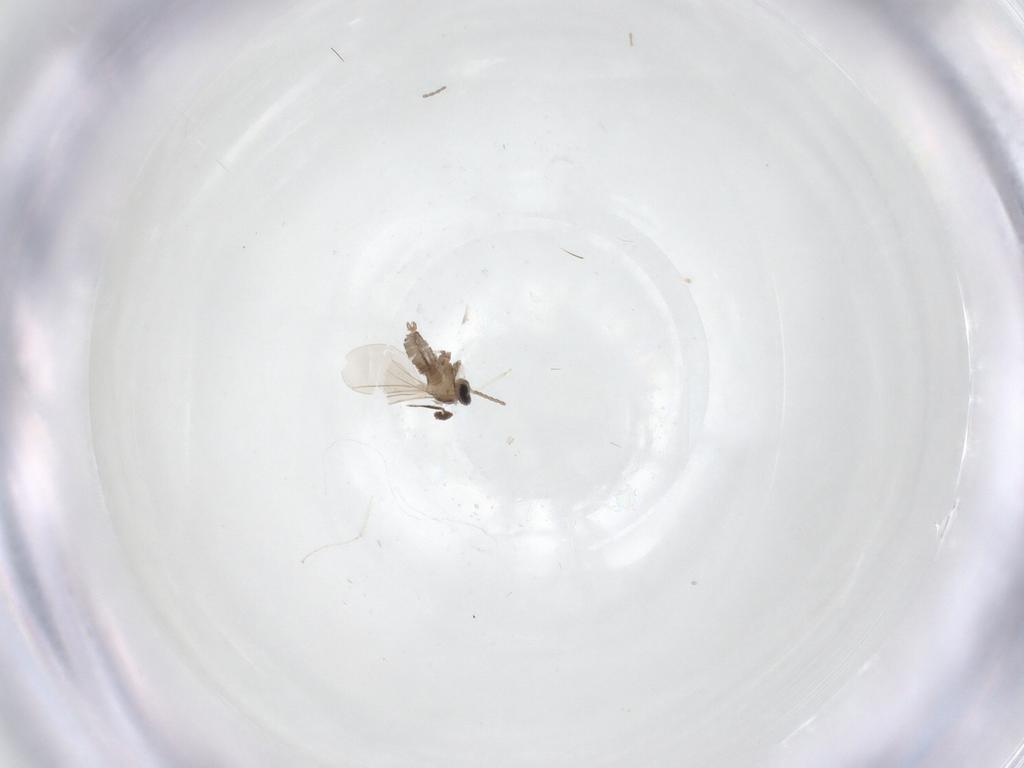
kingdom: Animalia
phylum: Arthropoda
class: Insecta
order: Diptera
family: Cecidomyiidae
